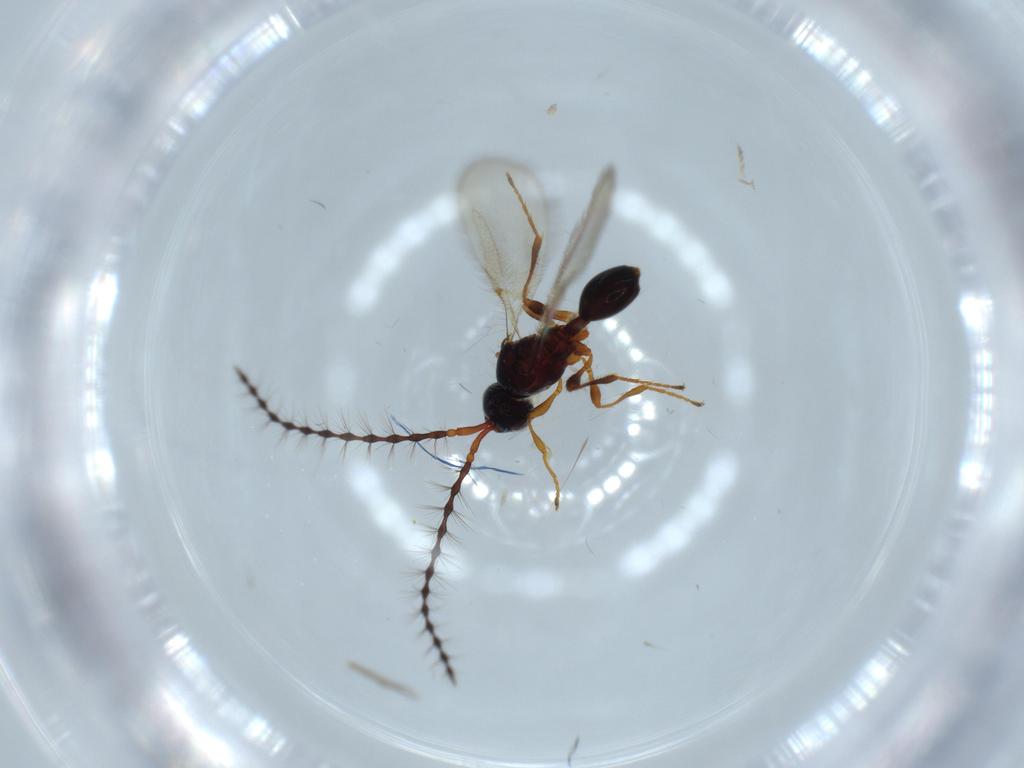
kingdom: Animalia
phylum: Arthropoda
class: Insecta
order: Hymenoptera
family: Diapriidae
